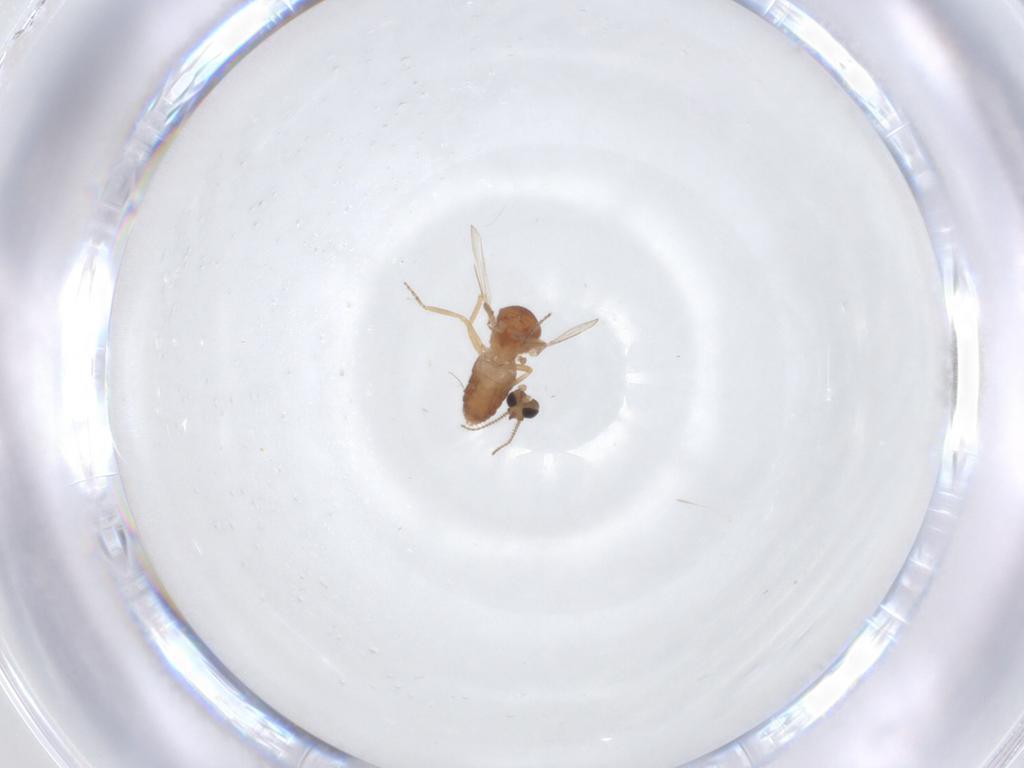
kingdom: Animalia
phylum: Arthropoda
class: Insecta
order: Diptera
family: Ceratopogonidae
